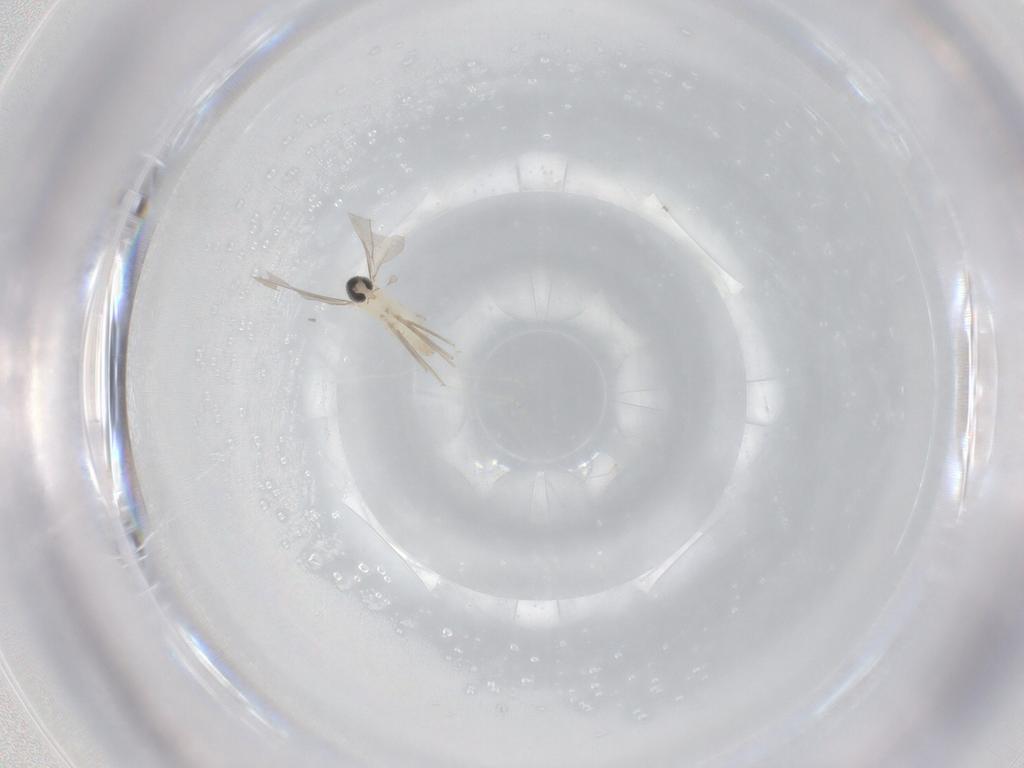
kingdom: Animalia
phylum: Arthropoda
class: Insecta
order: Diptera
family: Cecidomyiidae
